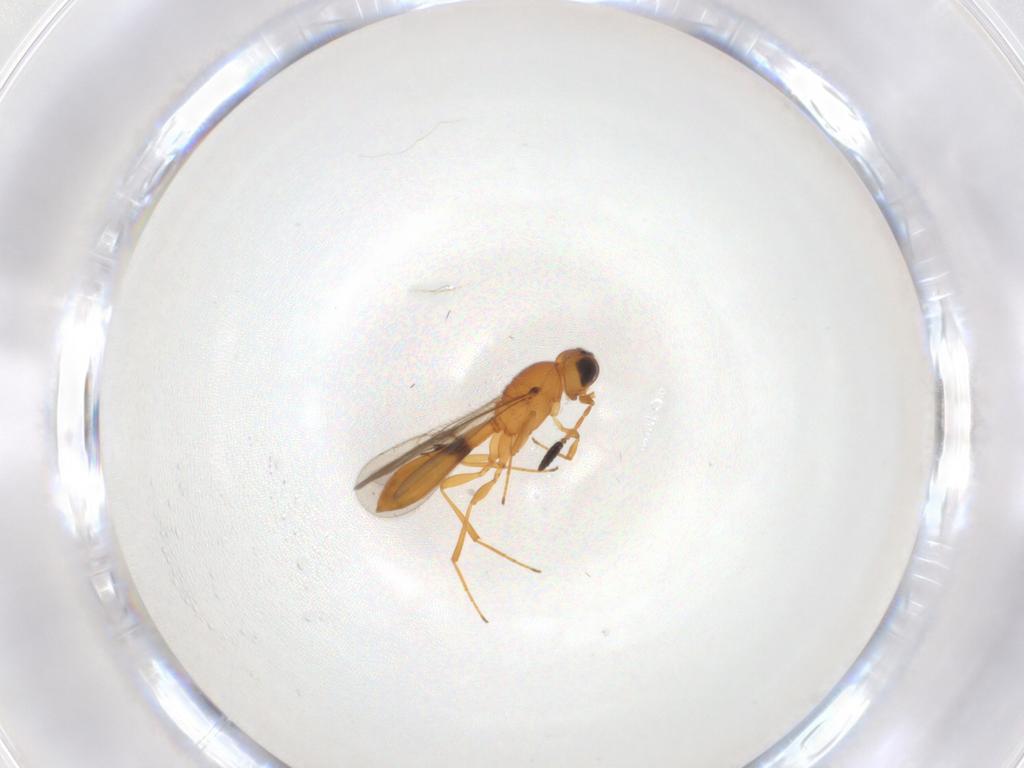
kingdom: Animalia
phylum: Arthropoda
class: Insecta
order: Hymenoptera
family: Scelionidae
